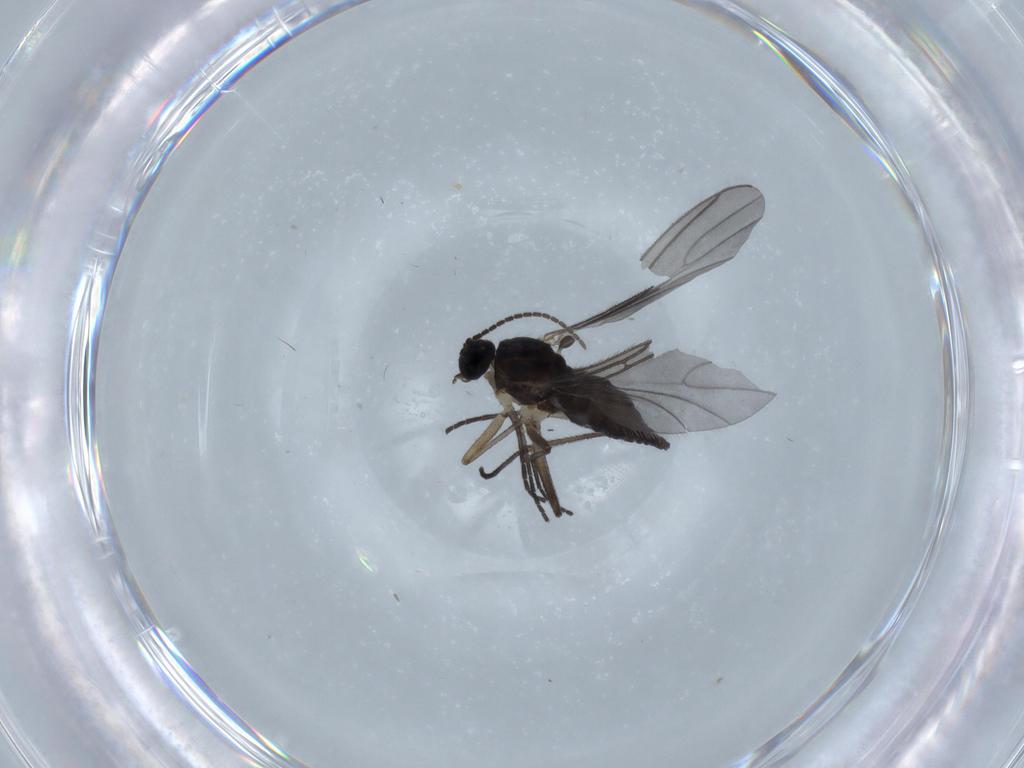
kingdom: Animalia
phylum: Arthropoda
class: Insecta
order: Diptera
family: Sciaridae
